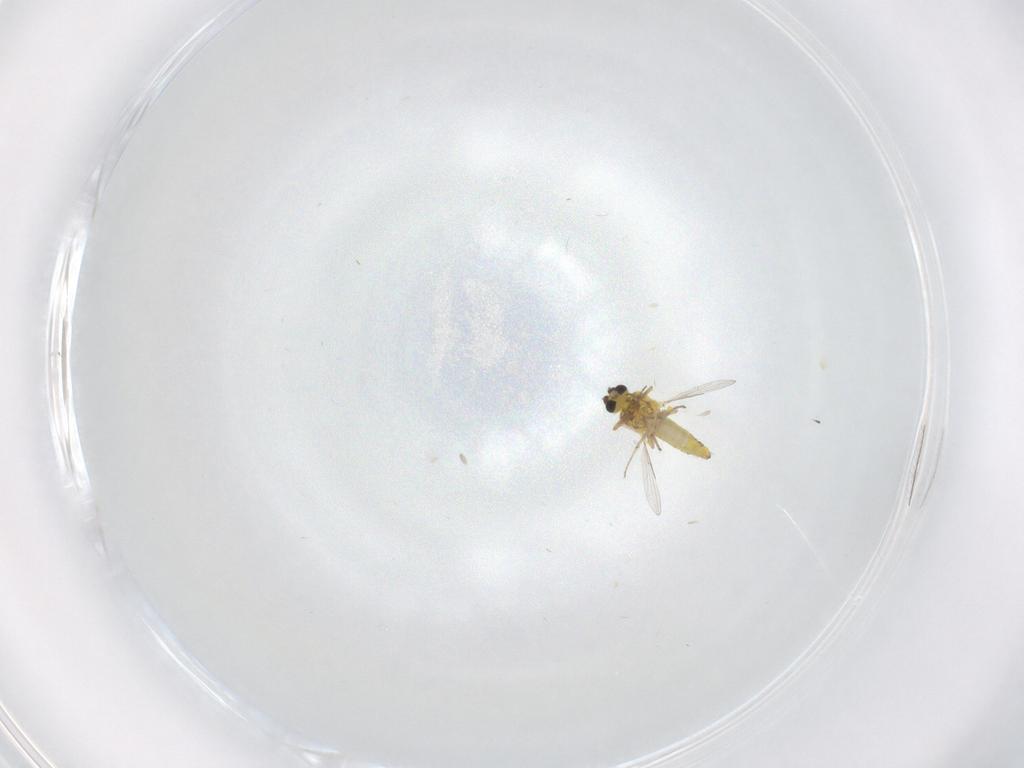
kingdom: Animalia
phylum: Arthropoda
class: Insecta
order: Diptera
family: Ceratopogonidae
